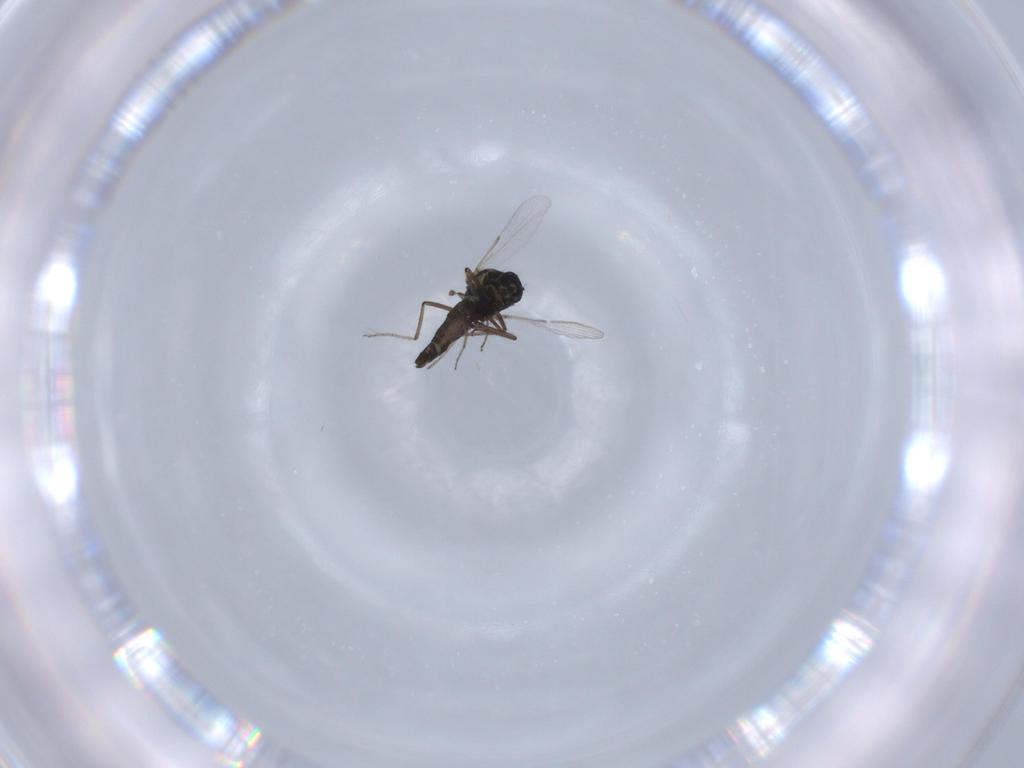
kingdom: Animalia
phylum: Arthropoda
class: Insecta
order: Diptera
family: Ceratopogonidae
